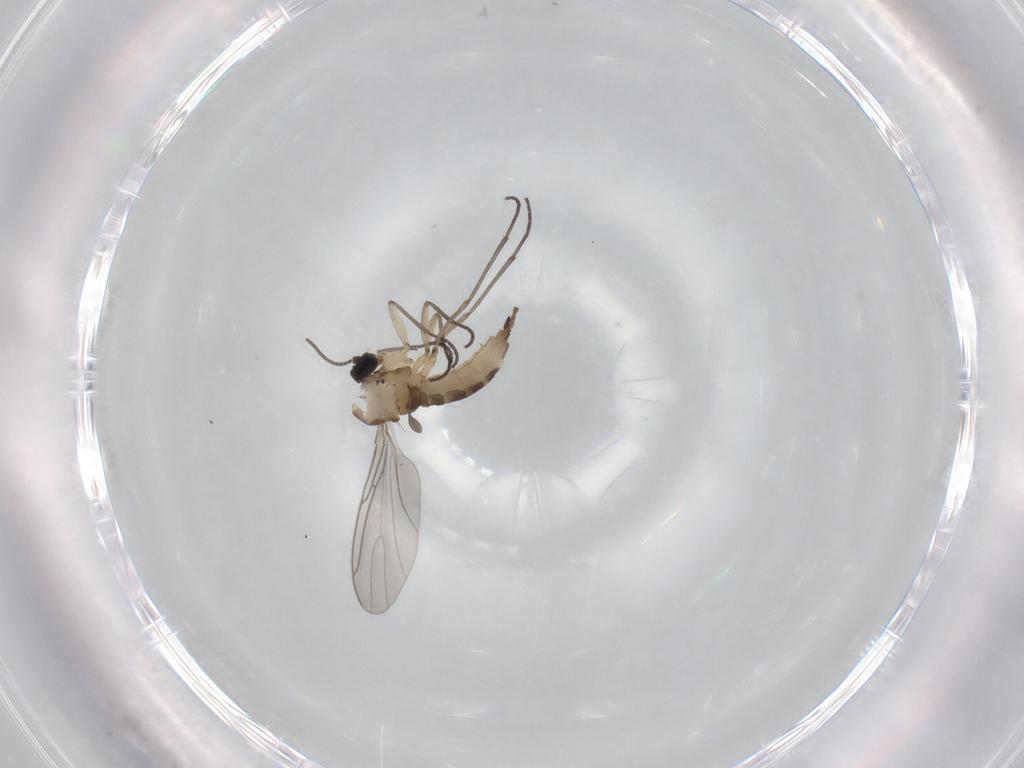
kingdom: Animalia
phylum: Arthropoda
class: Insecta
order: Diptera
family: Sciaridae
